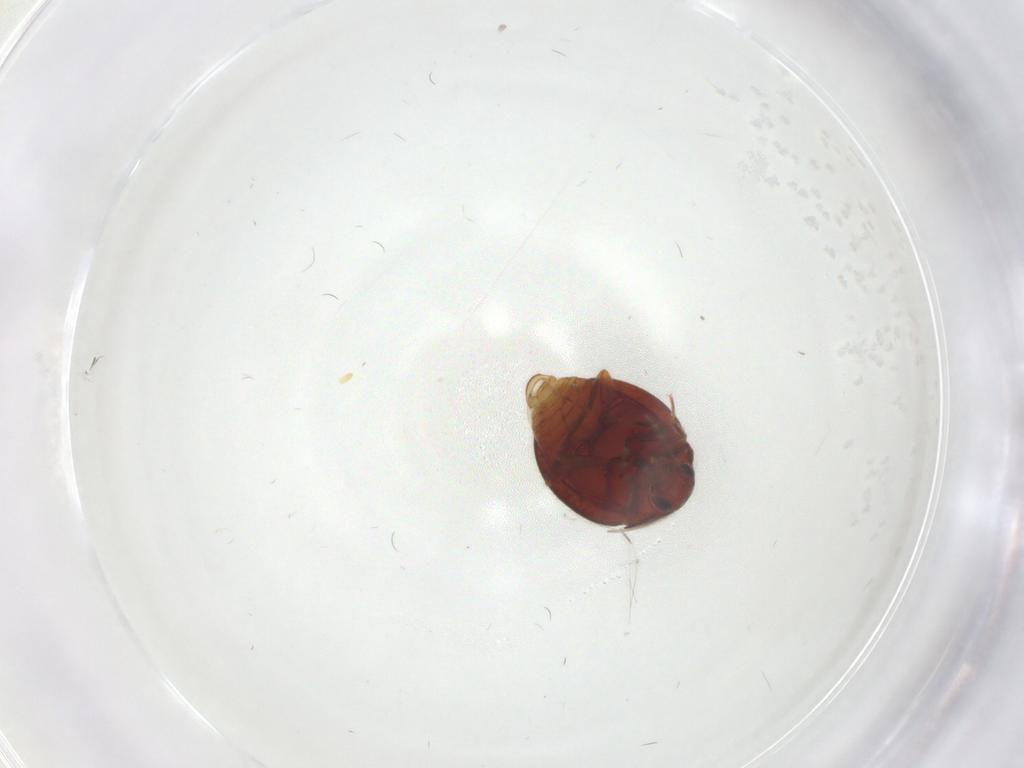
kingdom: Animalia
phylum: Arthropoda
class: Insecta
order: Coleoptera
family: Anamorphidae
